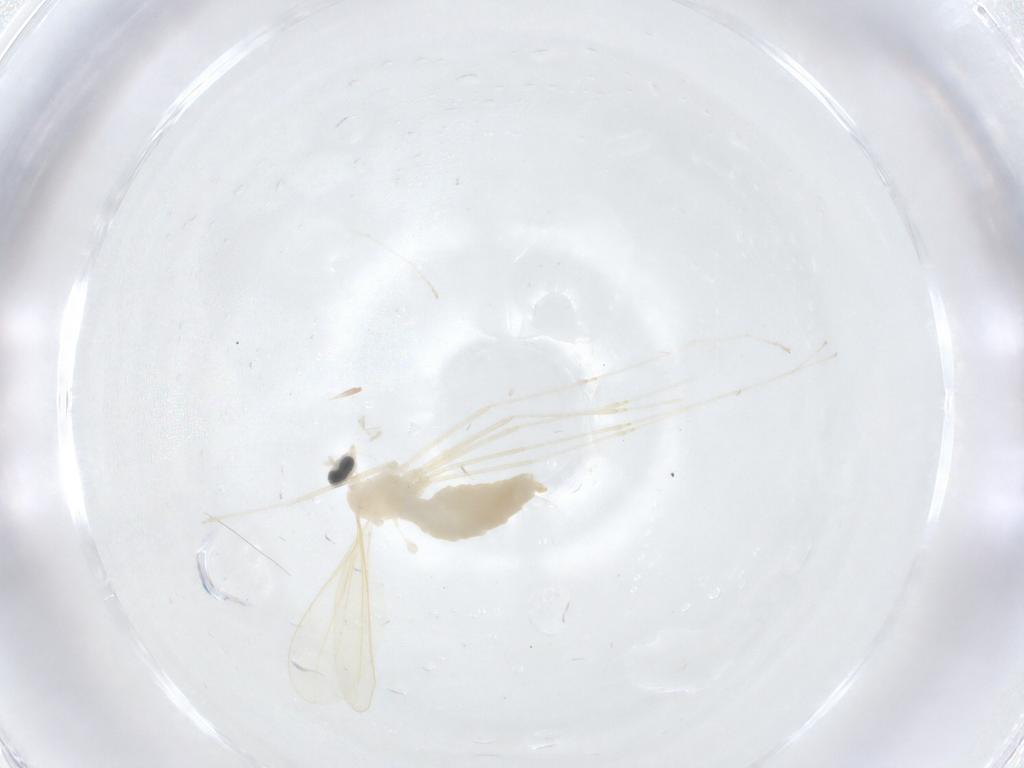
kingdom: Animalia
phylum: Arthropoda
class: Insecta
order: Diptera
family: Cecidomyiidae
